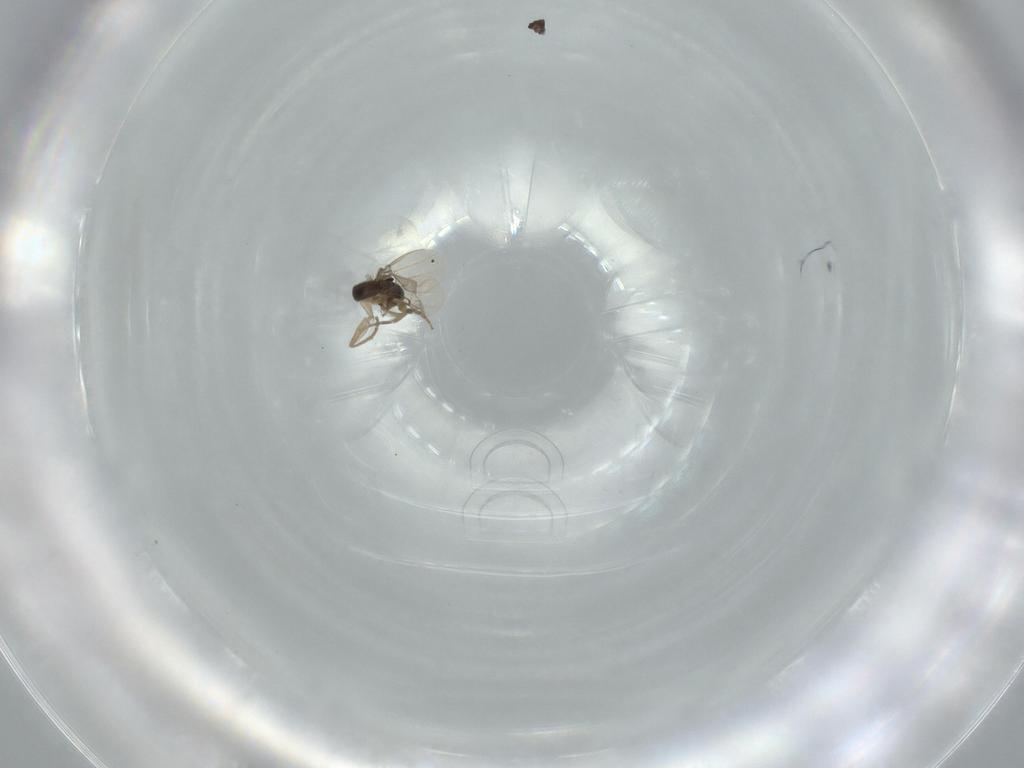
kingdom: Animalia
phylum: Arthropoda
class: Insecta
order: Diptera
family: Phoridae
